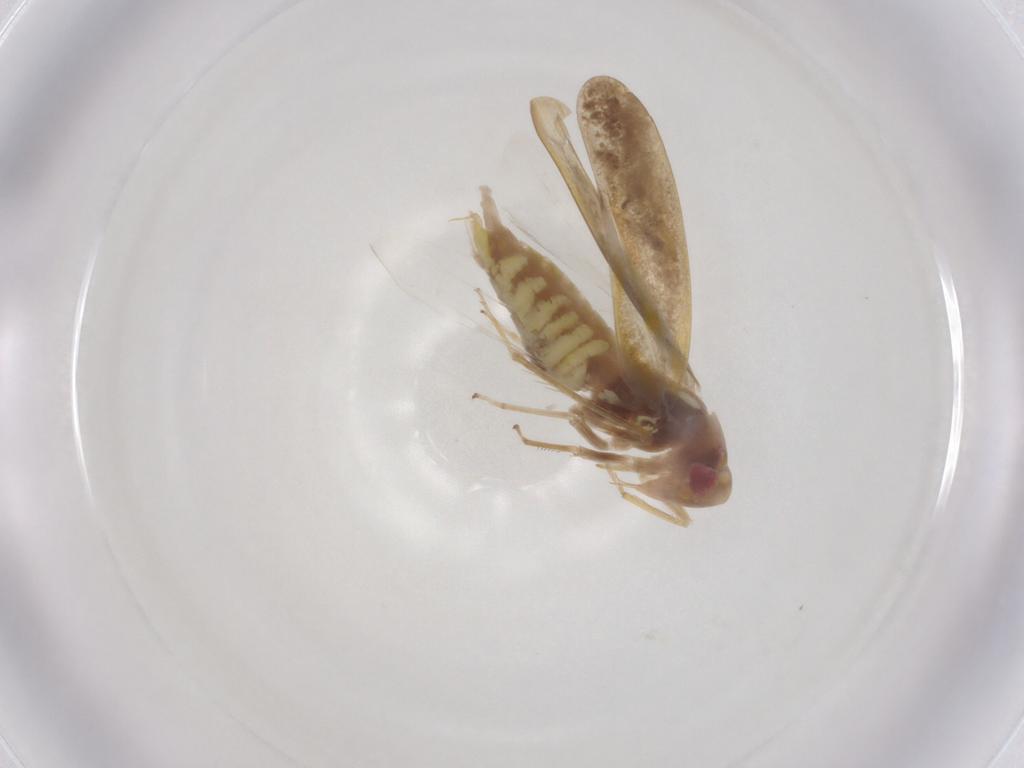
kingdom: Animalia
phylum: Arthropoda
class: Insecta
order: Hemiptera
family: Cicadellidae
